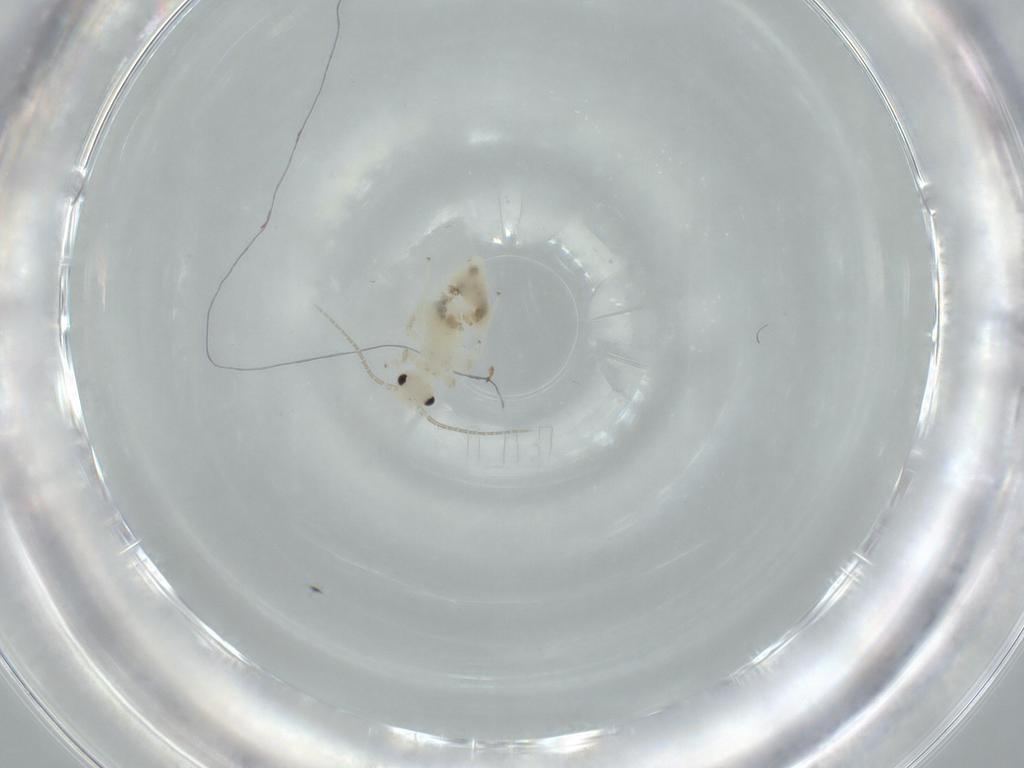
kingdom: Animalia
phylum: Arthropoda
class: Insecta
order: Psocodea
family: Caeciliusidae
